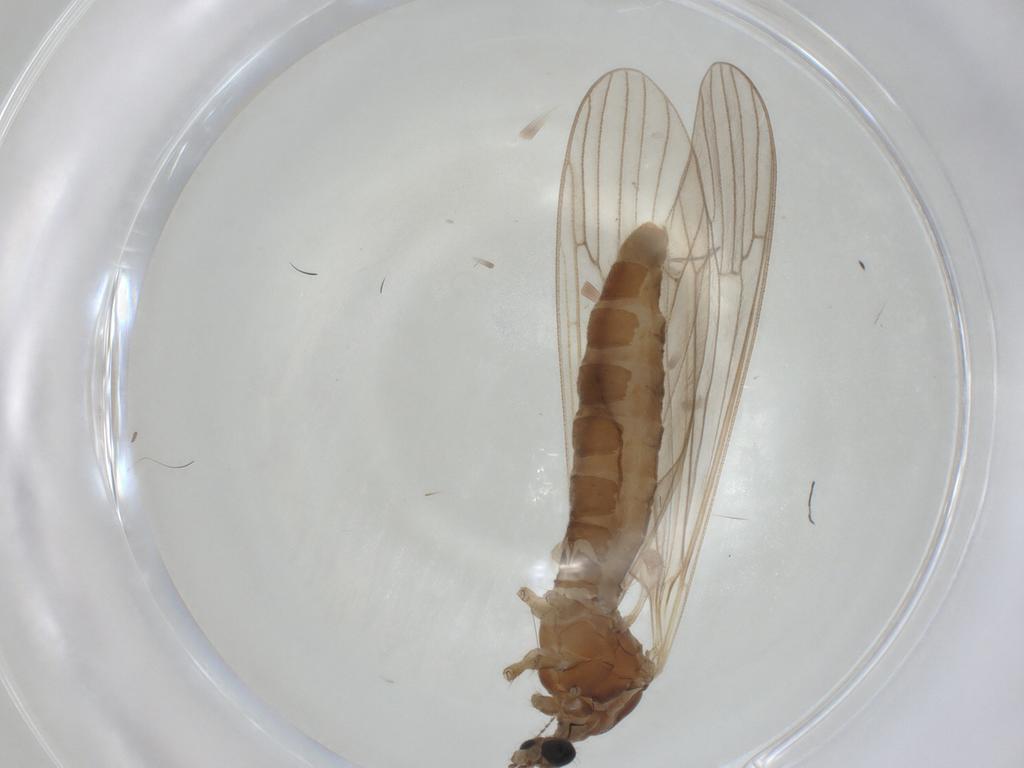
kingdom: Animalia
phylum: Arthropoda
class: Insecta
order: Diptera
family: Limoniidae
